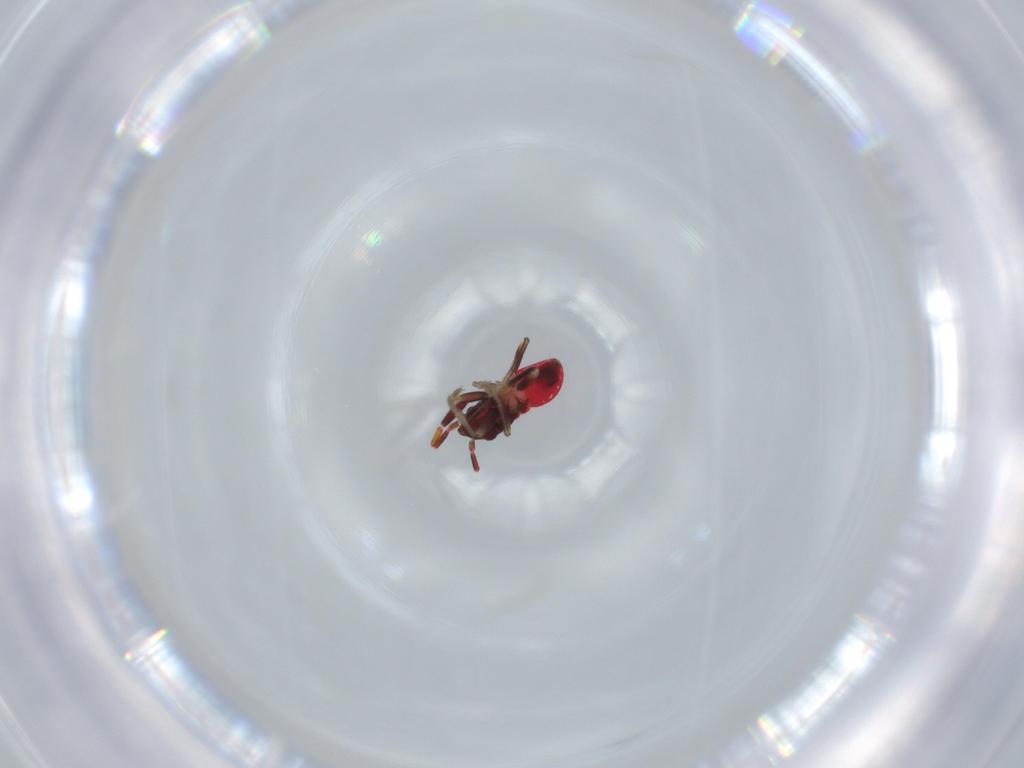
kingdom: Animalia
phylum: Arthropoda
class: Insecta
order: Hemiptera
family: Rhyparochromidae
